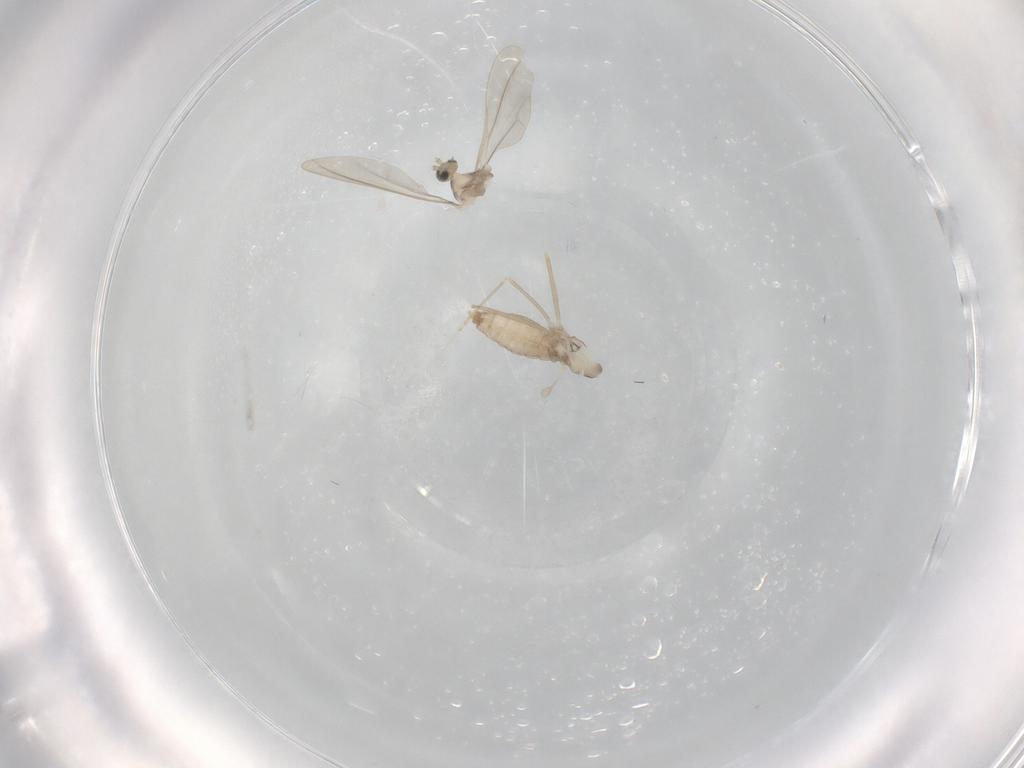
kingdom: Animalia
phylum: Arthropoda
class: Insecta
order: Diptera
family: Cecidomyiidae
